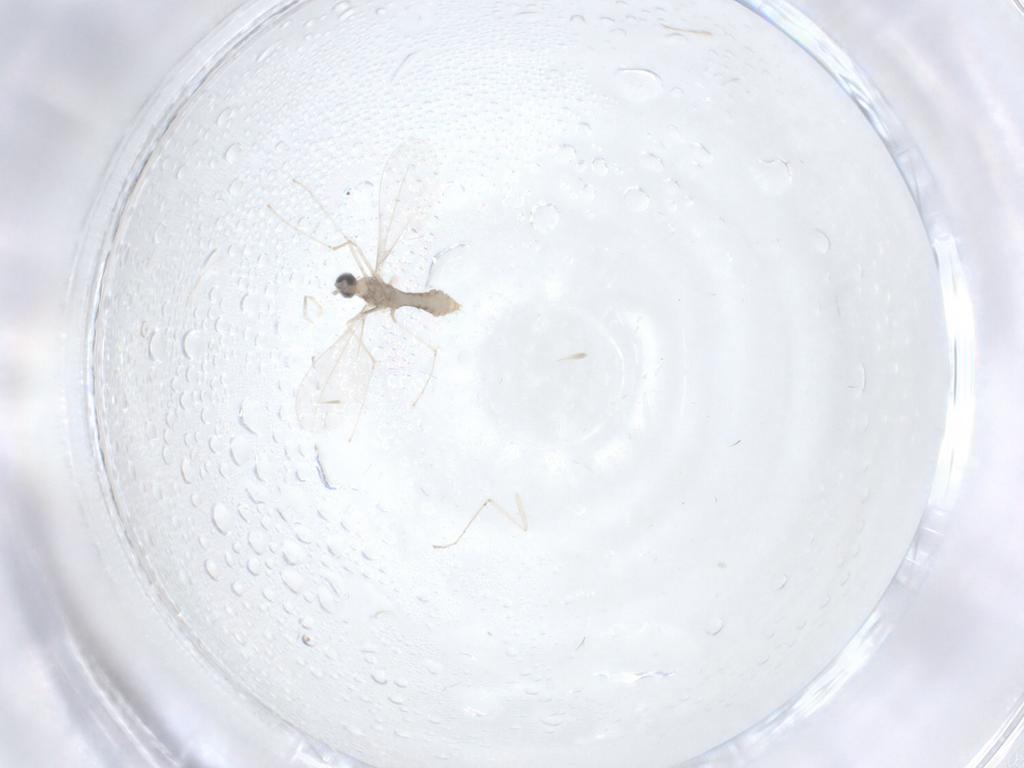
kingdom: Animalia
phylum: Arthropoda
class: Insecta
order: Diptera
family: Cecidomyiidae
